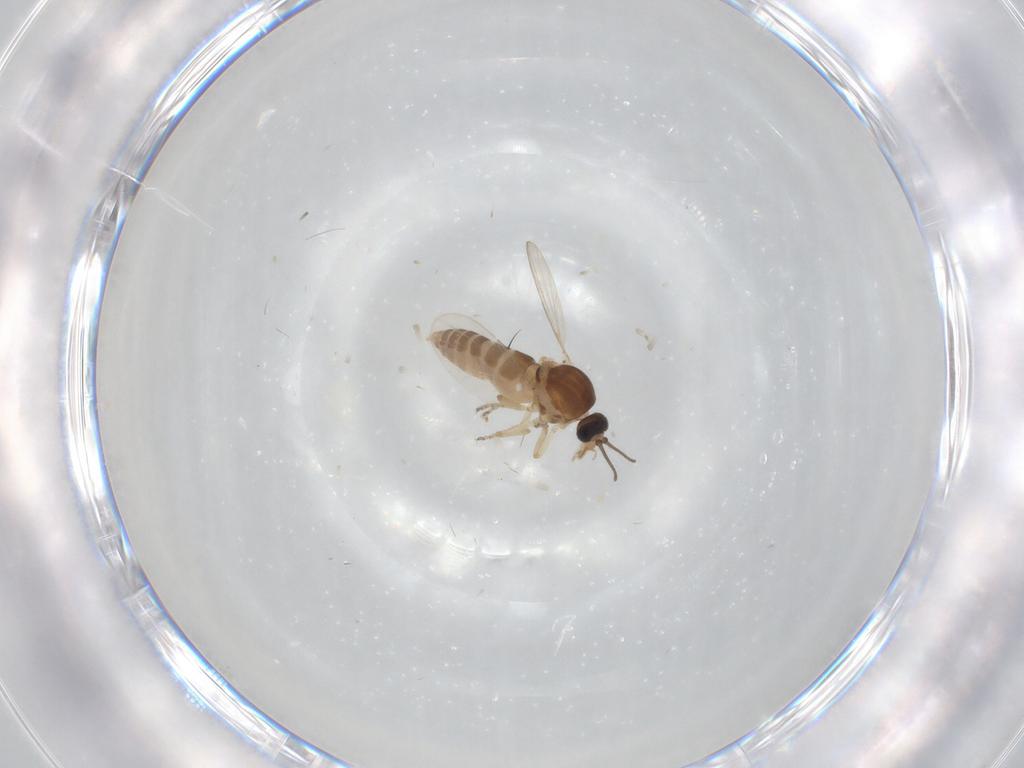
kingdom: Animalia
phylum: Arthropoda
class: Insecta
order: Diptera
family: Ceratopogonidae
